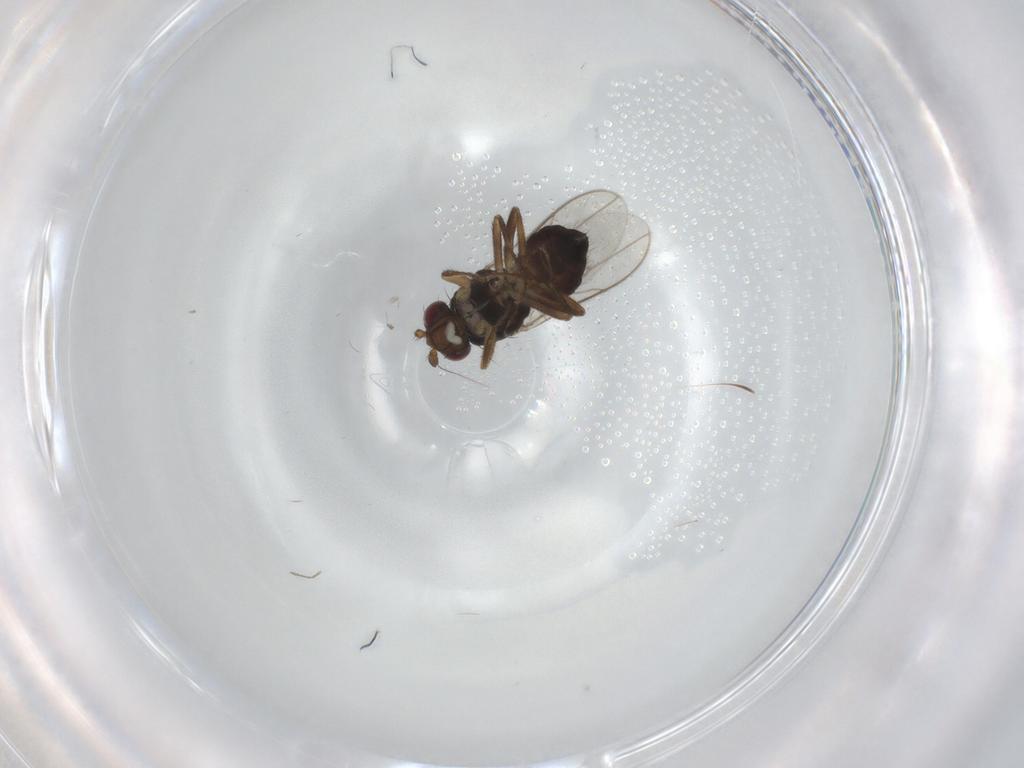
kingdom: Animalia
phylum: Arthropoda
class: Insecta
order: Diptera
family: Sphaeroceridae
